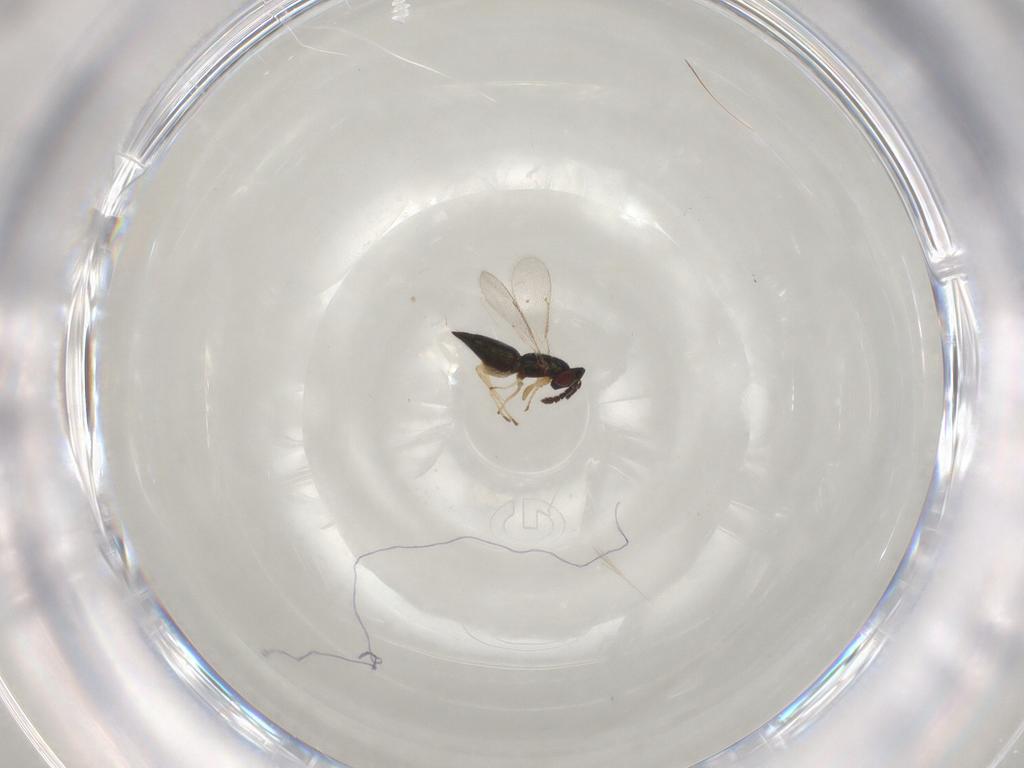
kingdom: Animalia
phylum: Arthropoda
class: Insecta
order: Hymenoptera
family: Eulophidae
